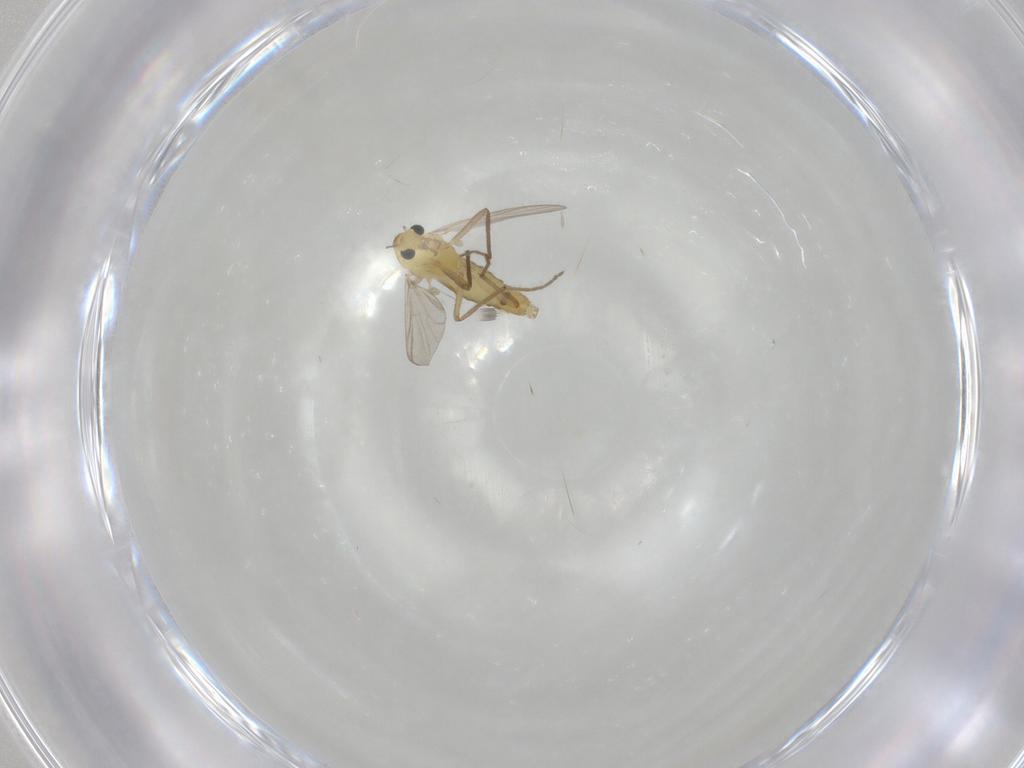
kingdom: Animalia
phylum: Arthropoda
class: Insecta
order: Diptera
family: Chironomidae
